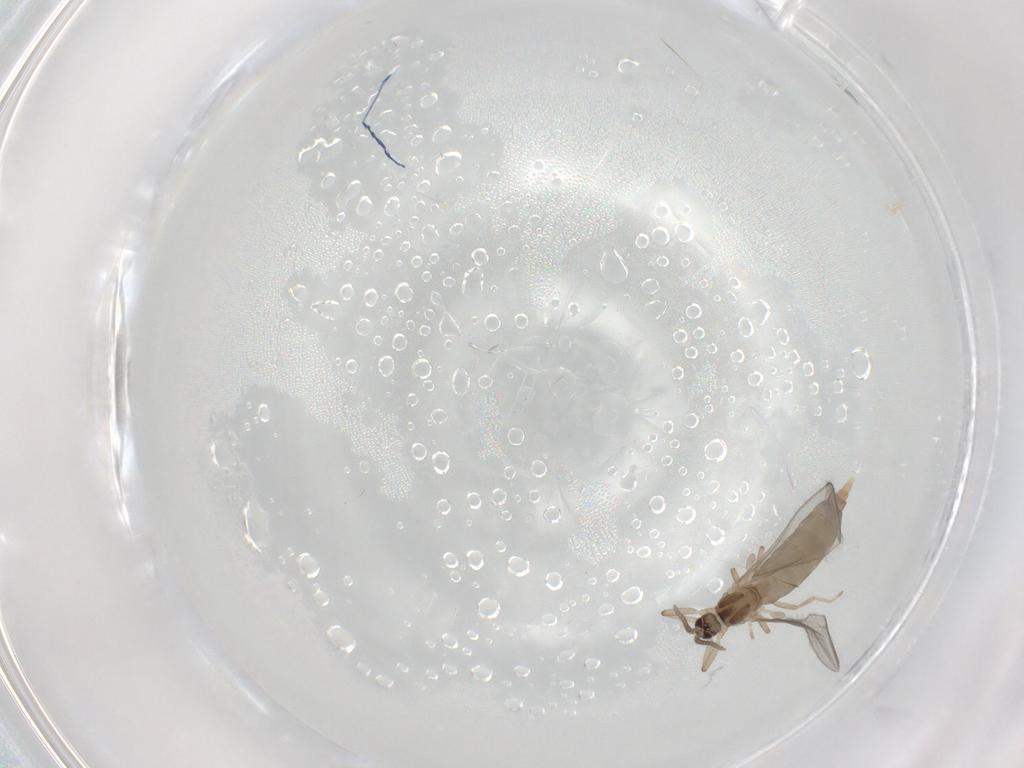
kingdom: Animalia
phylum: Arthropoda
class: Insecta
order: Diptera
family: Cecidomyiidae
